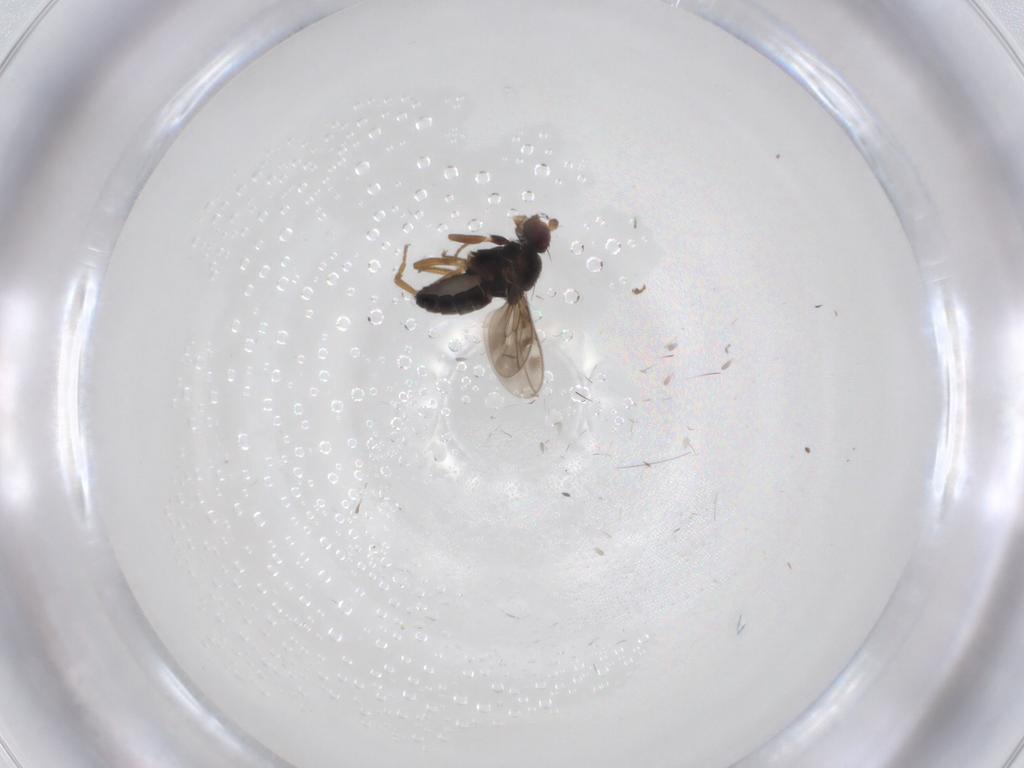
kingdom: Animalia
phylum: Arthropoda
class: Insecta
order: Diptera
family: Sphaeroceridae
